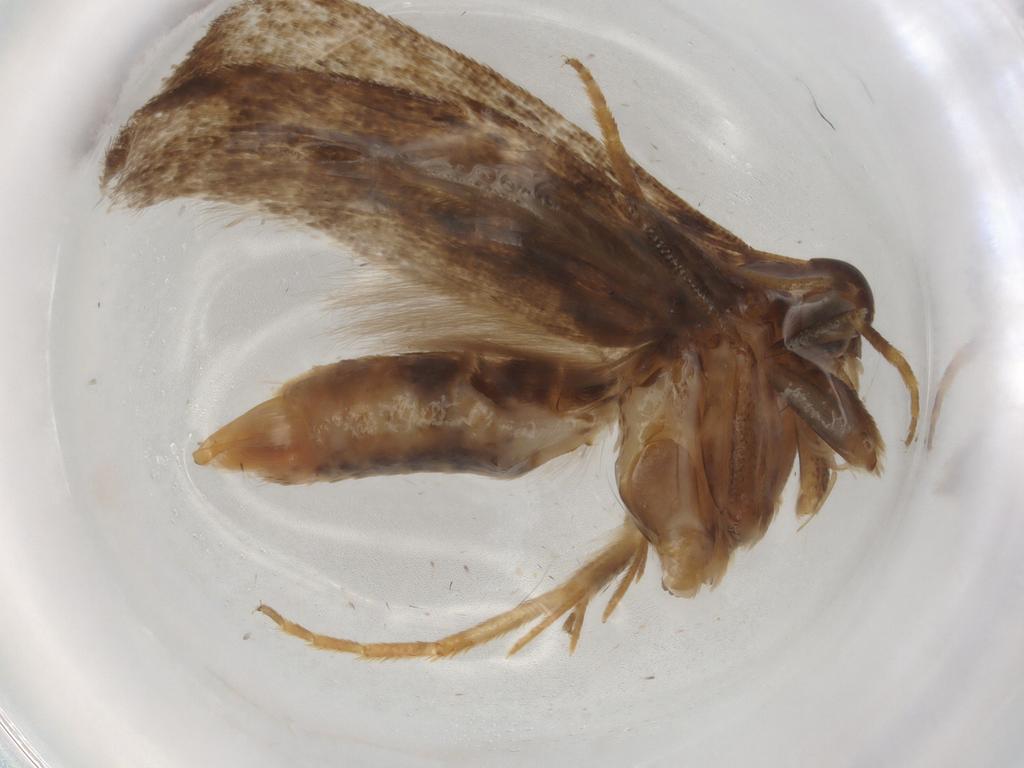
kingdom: Animalia
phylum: Arthropoda
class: Insecta
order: Lepidoptera
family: Gelechiidae
